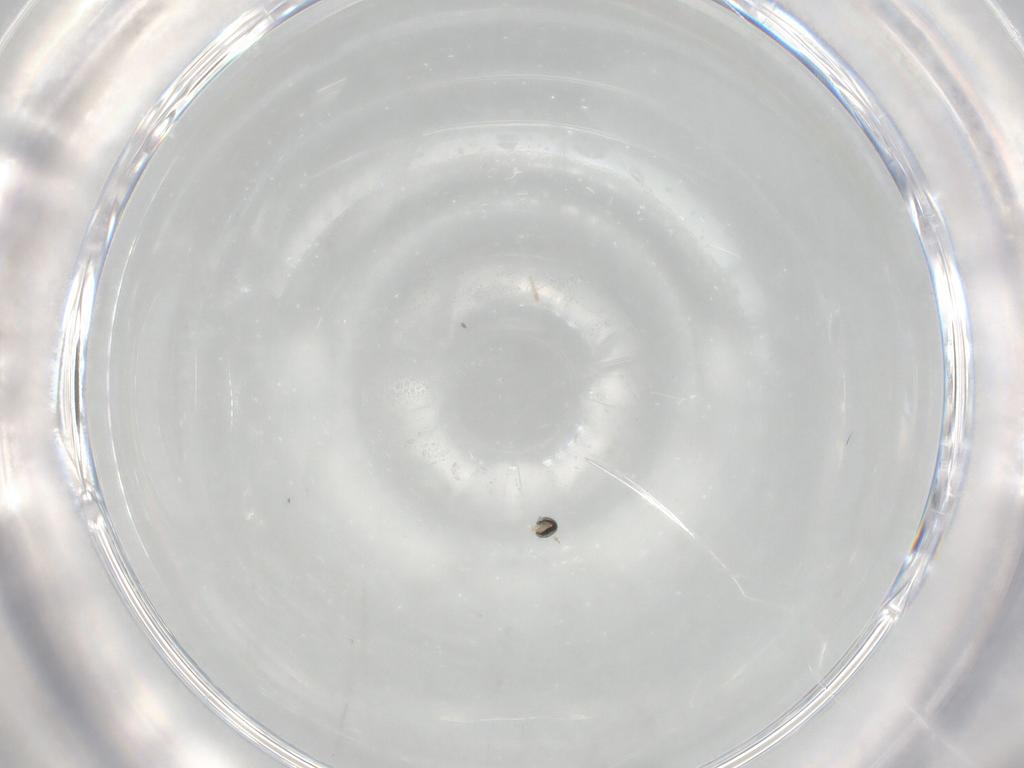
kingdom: Animalia
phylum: Arthropoda
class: Insecta
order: Diptera
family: Cecidomyiidae
